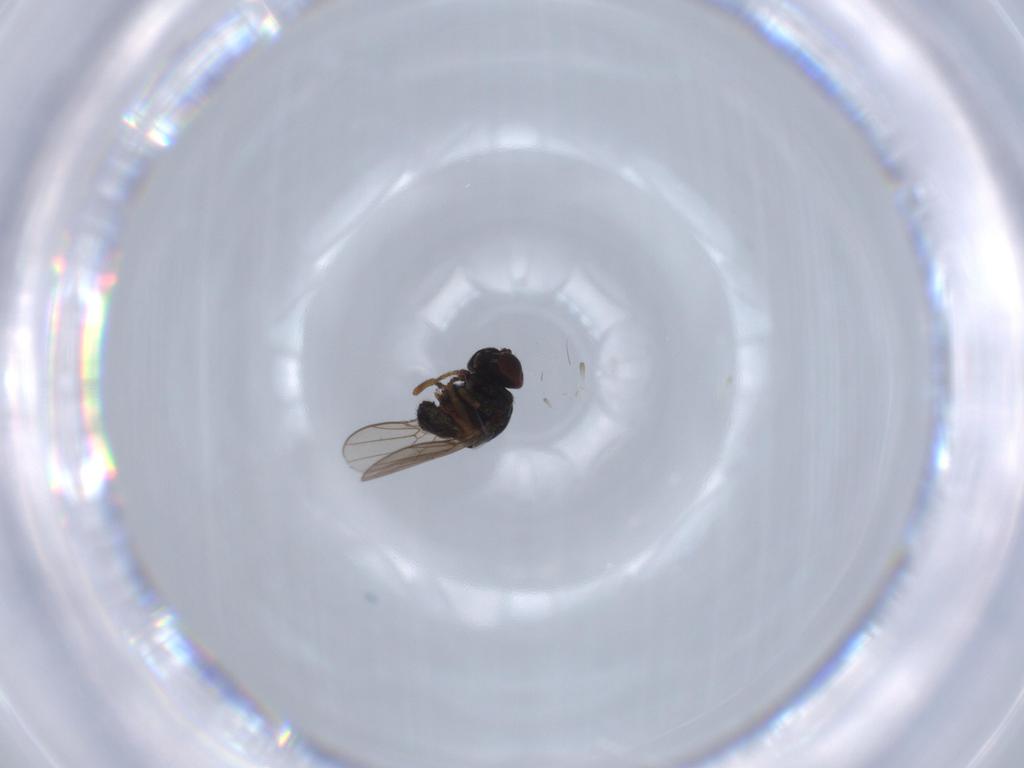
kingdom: Animalia
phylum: Arthropoda
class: Insecta
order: Diptera
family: Chloropidae
